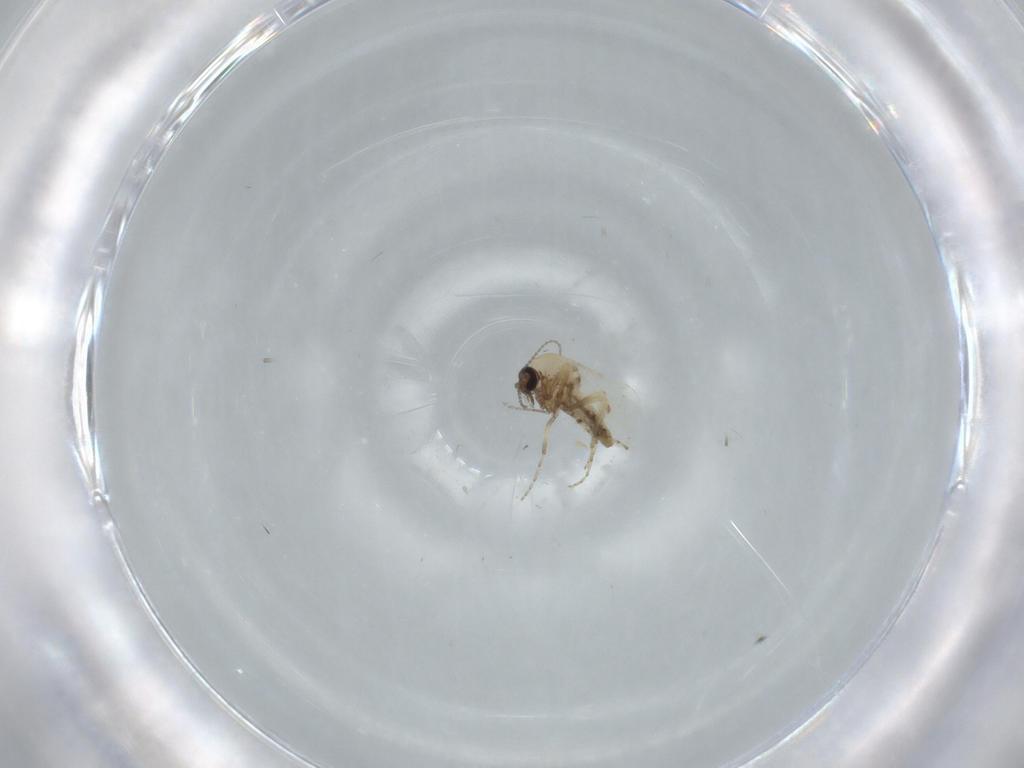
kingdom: Animalia
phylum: Arthropoda
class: Insecta
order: Diptera
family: Ceratopogonidae
